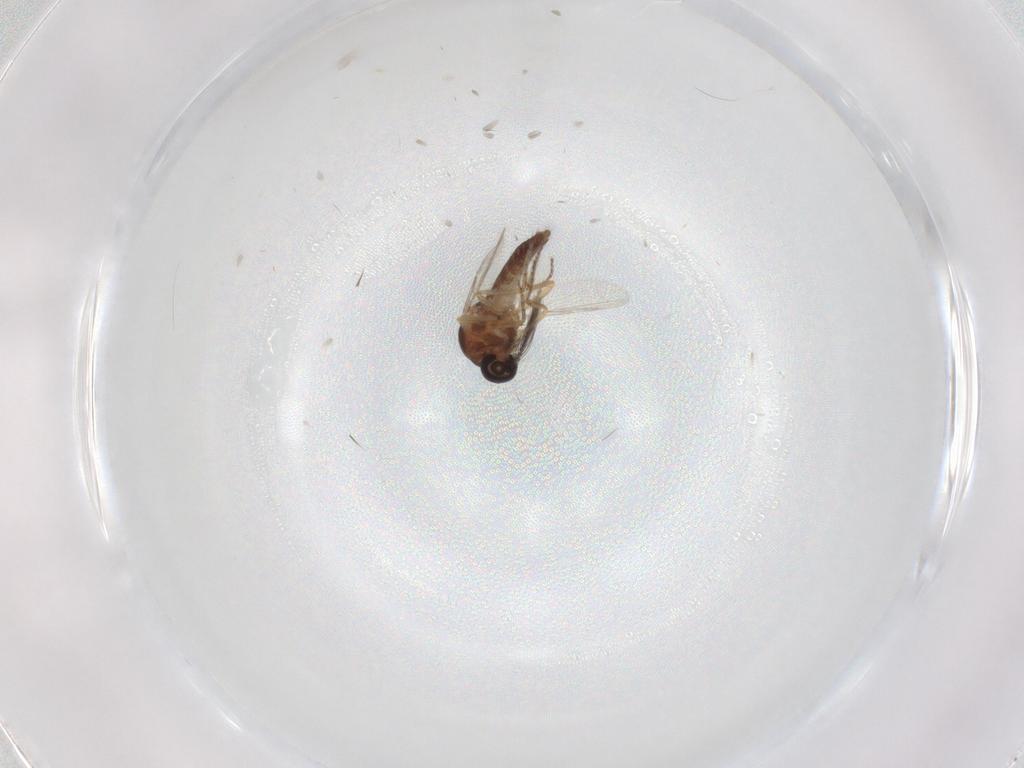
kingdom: Animalia
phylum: Arthropoda
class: Insecta
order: Diptera
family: Ceratopogonidae
